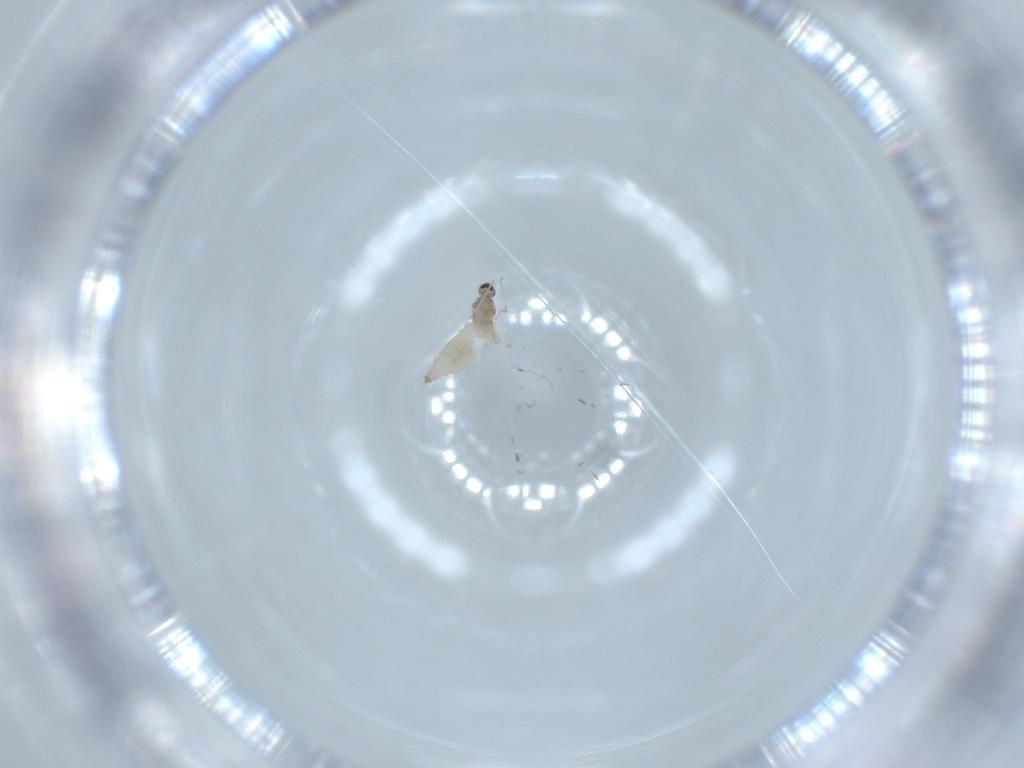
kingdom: Animalia
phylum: Arthropoda
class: Insecta
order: Diptera
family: Cecidomyiidae
